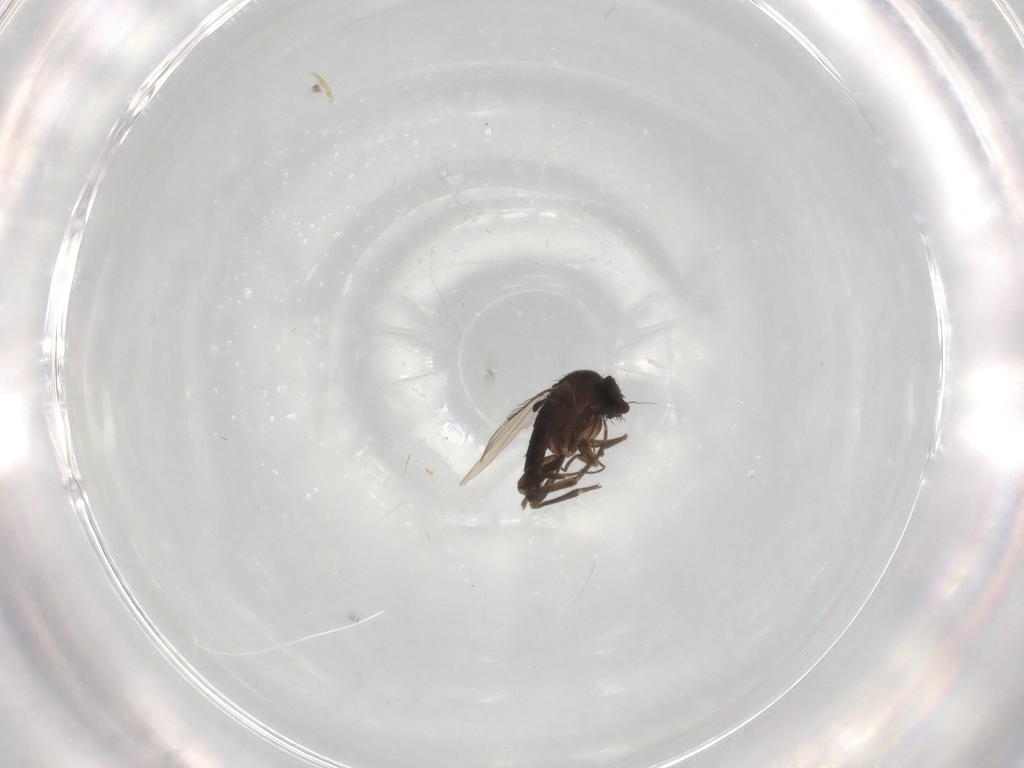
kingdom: Animalia
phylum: Arthropoda
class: Insecta
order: Diptera
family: Phoridae
